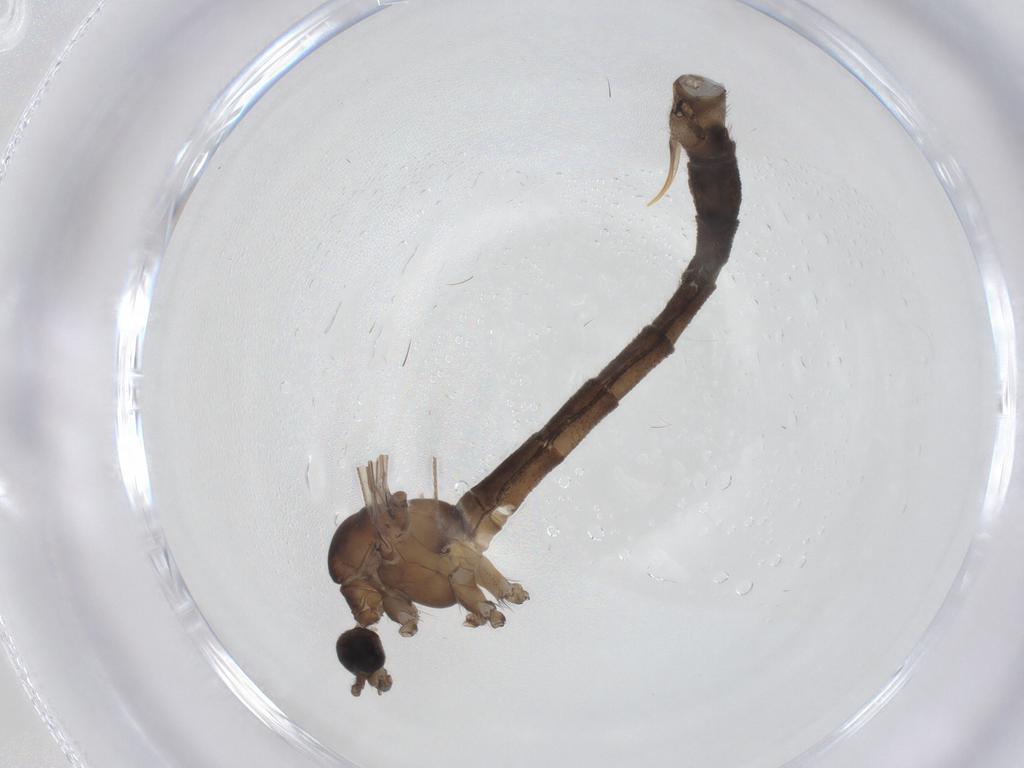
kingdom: Animalia
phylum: Arthropoda
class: Insecta
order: Diptera
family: Limoniidae
